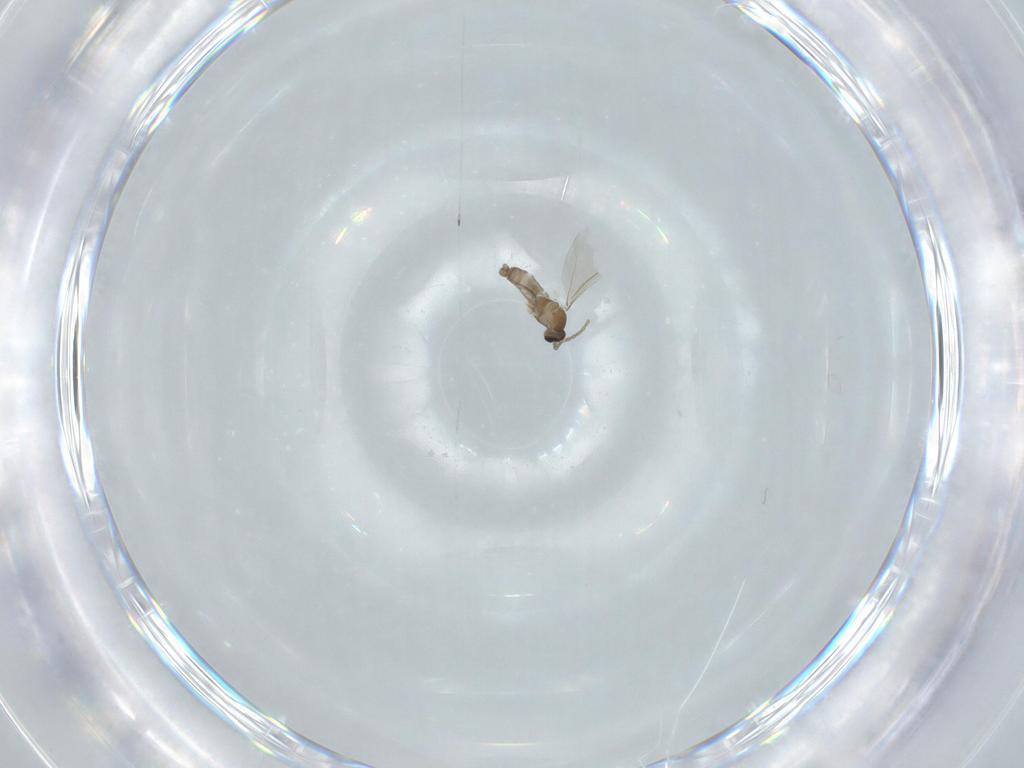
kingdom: Animalia
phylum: Arthropoda
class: Insecta
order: Diptera
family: Cecidomyiidae
